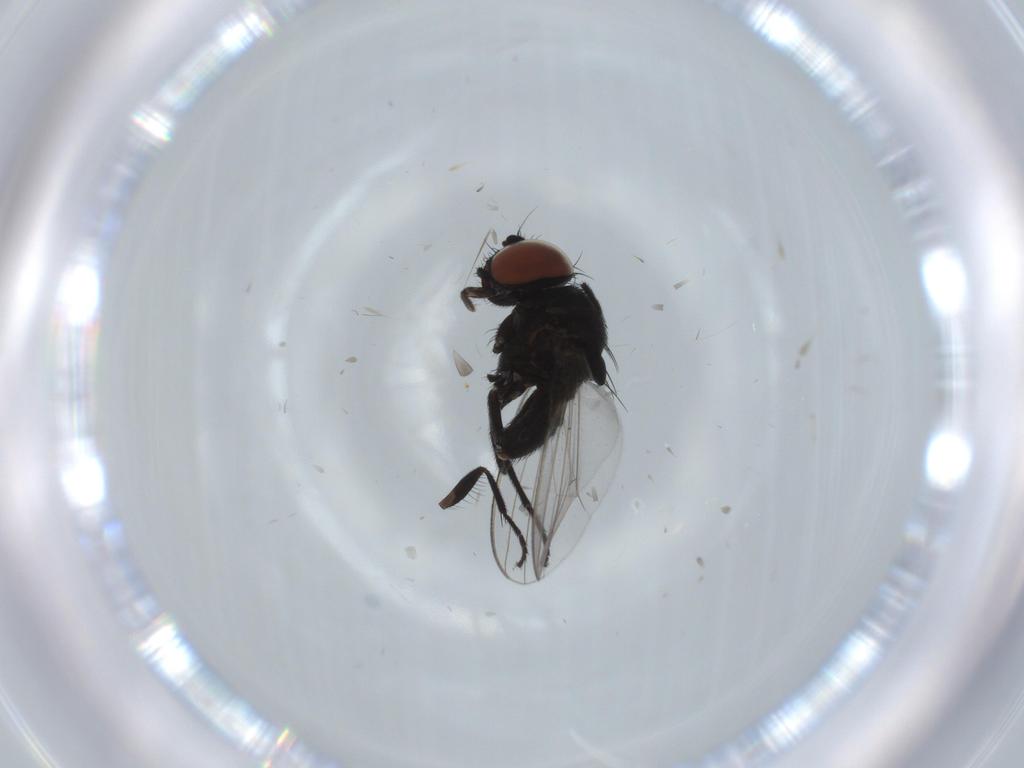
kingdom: Animalia
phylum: Arthropoda
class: Insecta
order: Diptera
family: Milichiidae
